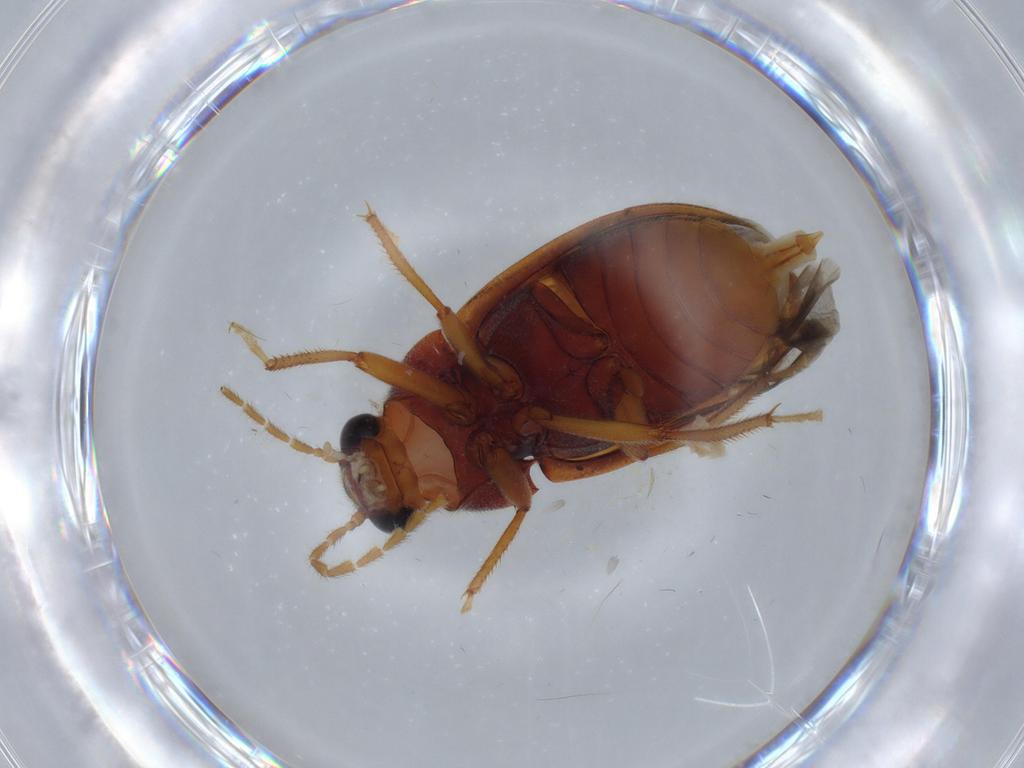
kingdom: Animalia
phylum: Arthropoda
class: Insecta
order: Coleoptera
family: Ptilodactylidae
